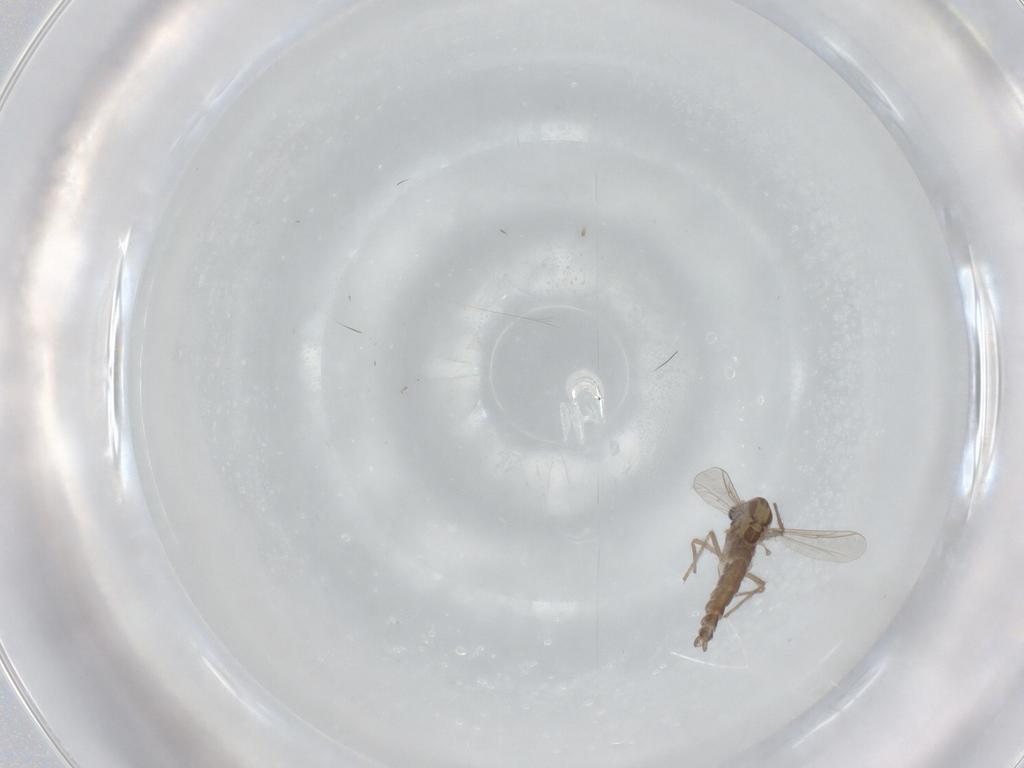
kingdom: Animalia
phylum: Arthropoda
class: Insecta
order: Diptera
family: Chironomidae
